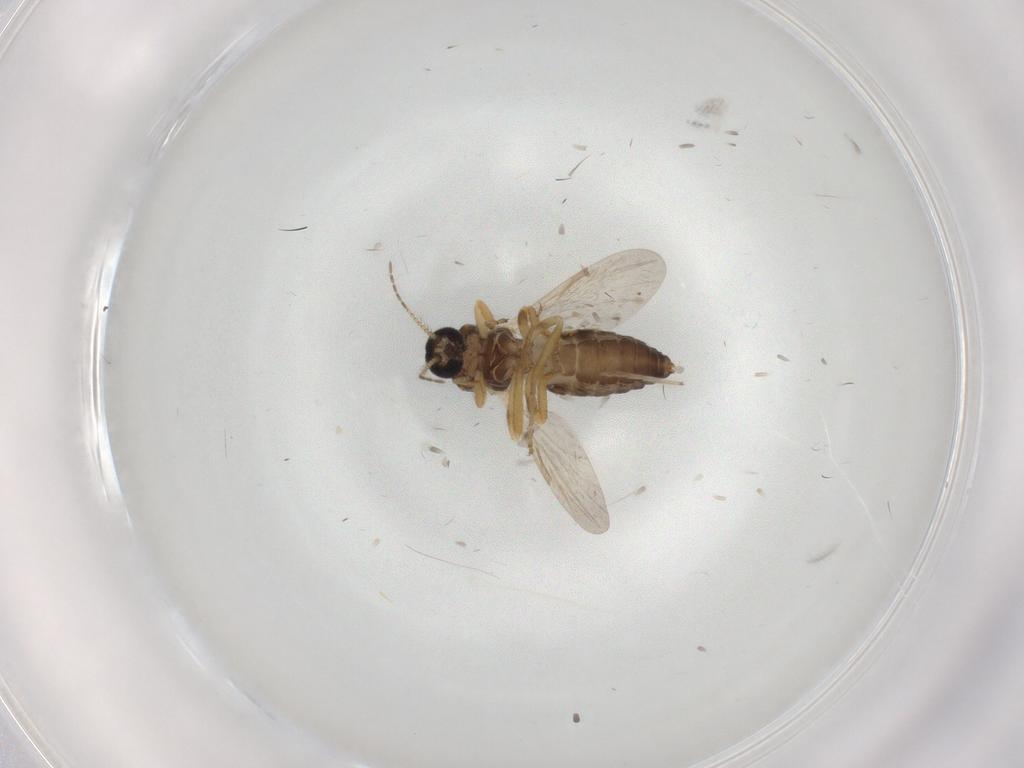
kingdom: Animalia
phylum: Arthropoda
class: Insecta
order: Diptera
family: Ceratopogonidae
